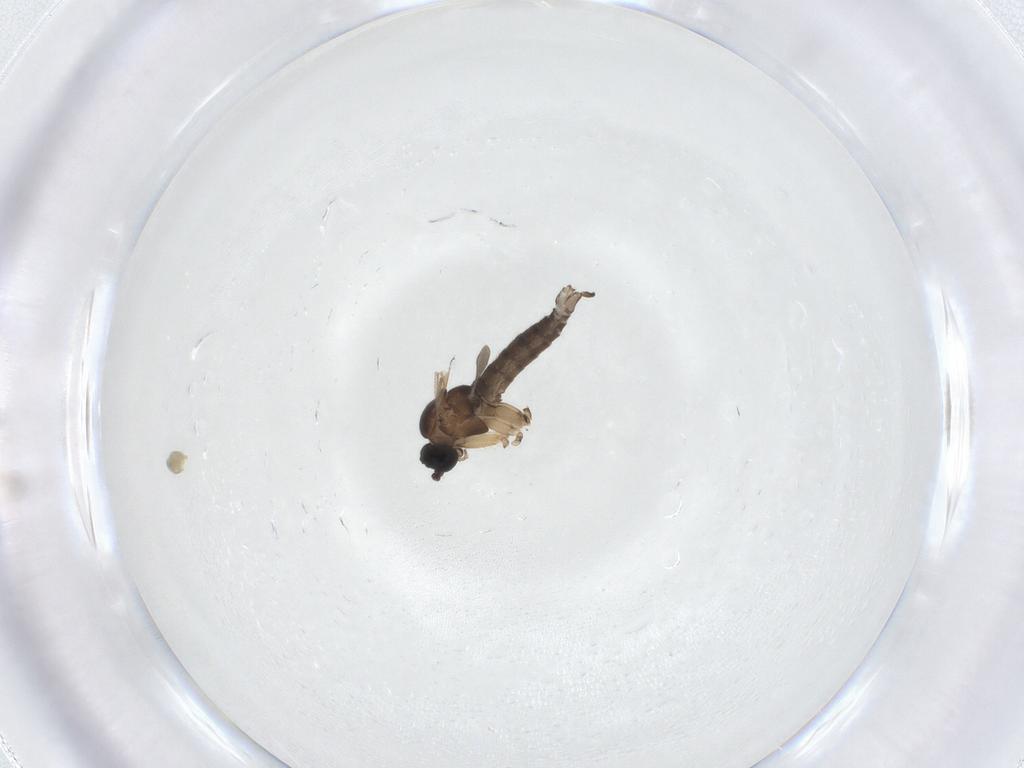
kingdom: Animalia
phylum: Arthropoda
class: Insecta
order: Diptera
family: Sciaridae
